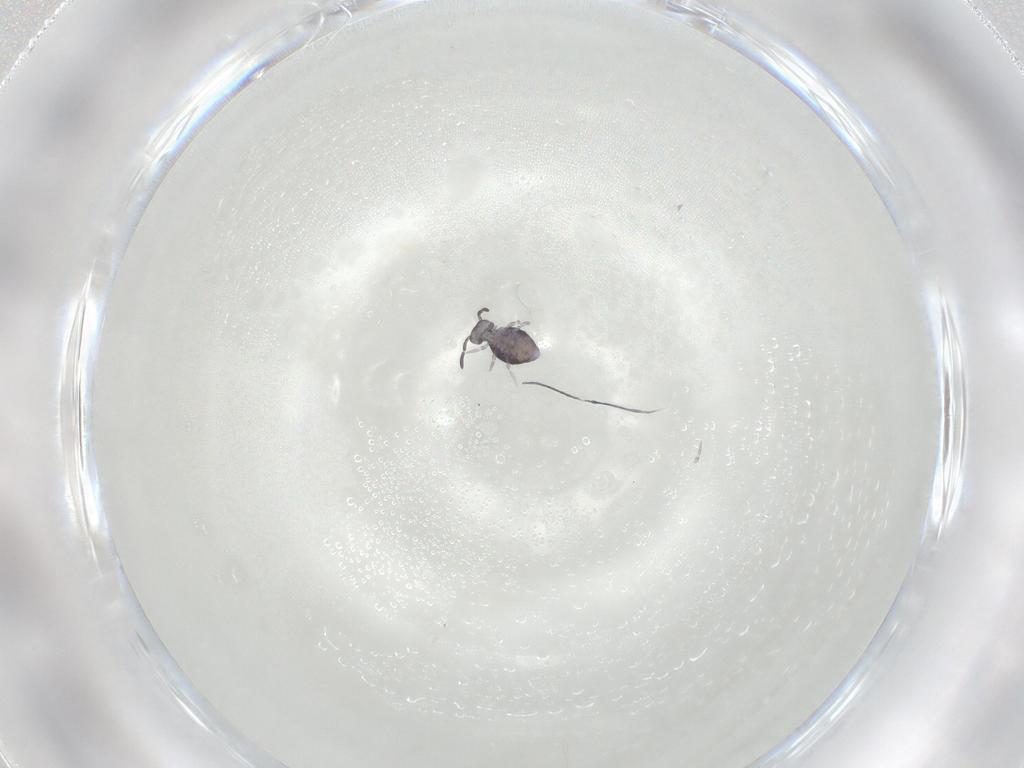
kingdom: Animalia
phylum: Arthropoda
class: Collembola
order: Symphypleona
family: Katiannidae
